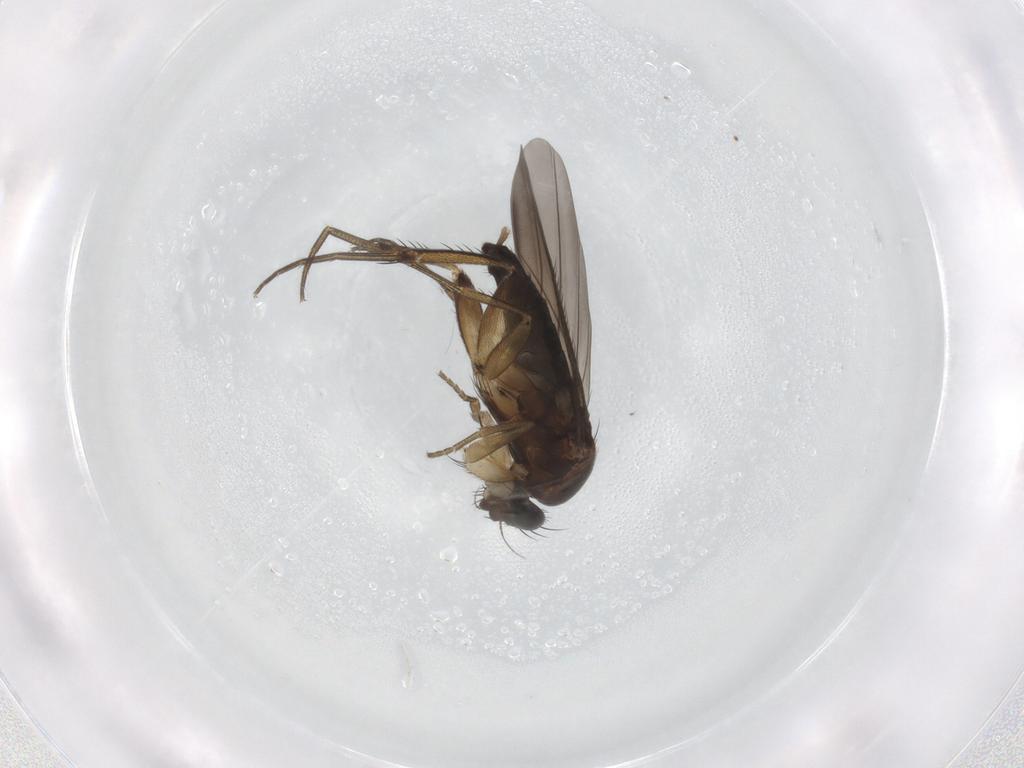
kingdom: Animalia
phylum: Arthropoda
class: Insecta
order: Diptera
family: Phoridae
